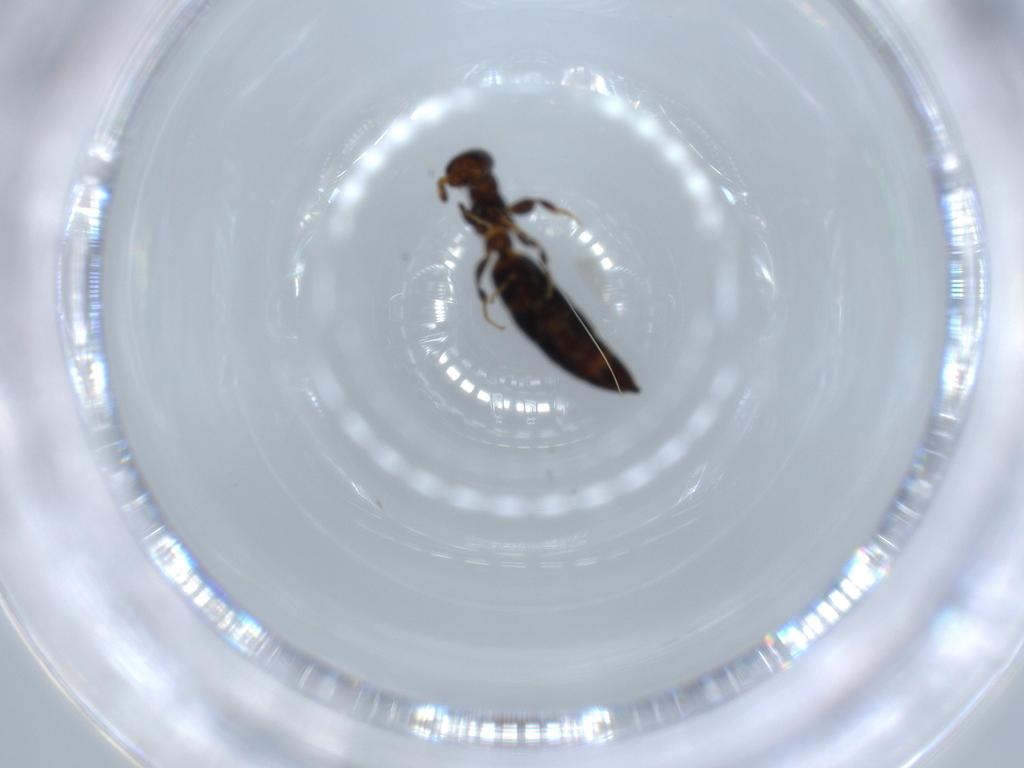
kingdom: Animalia
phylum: Arthropoda
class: Insecta
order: Hymenoptera
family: Bethylidae
